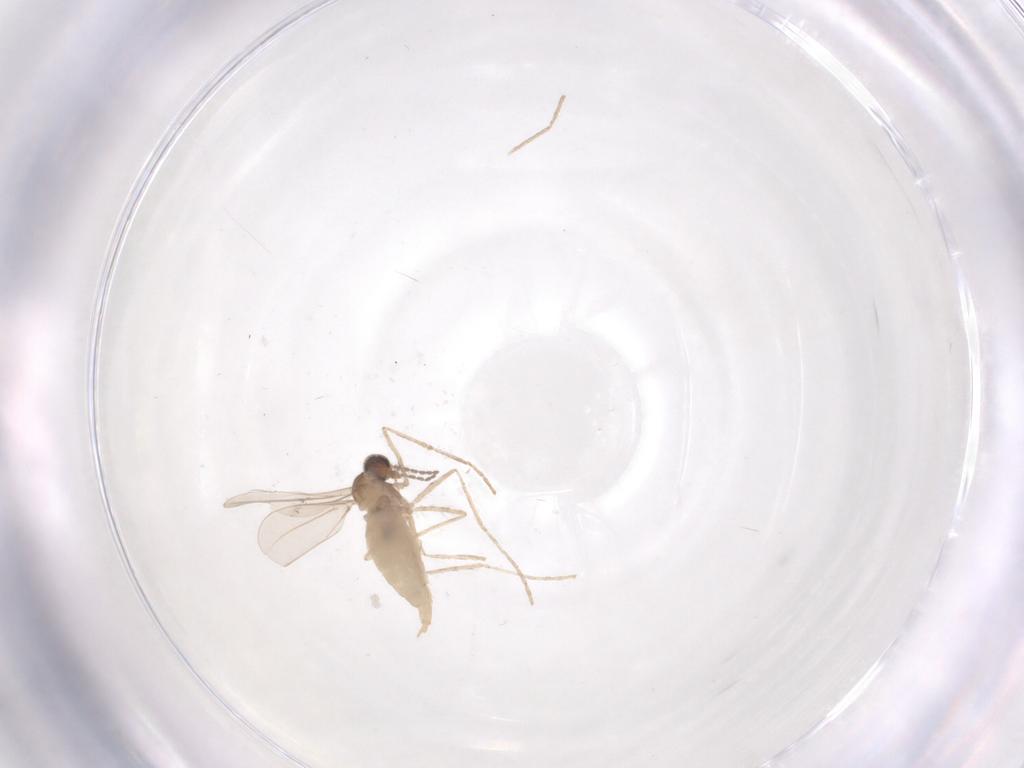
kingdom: Animalia
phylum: Arthropoda
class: Insecta
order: Diptera
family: Cecidomyiidae
